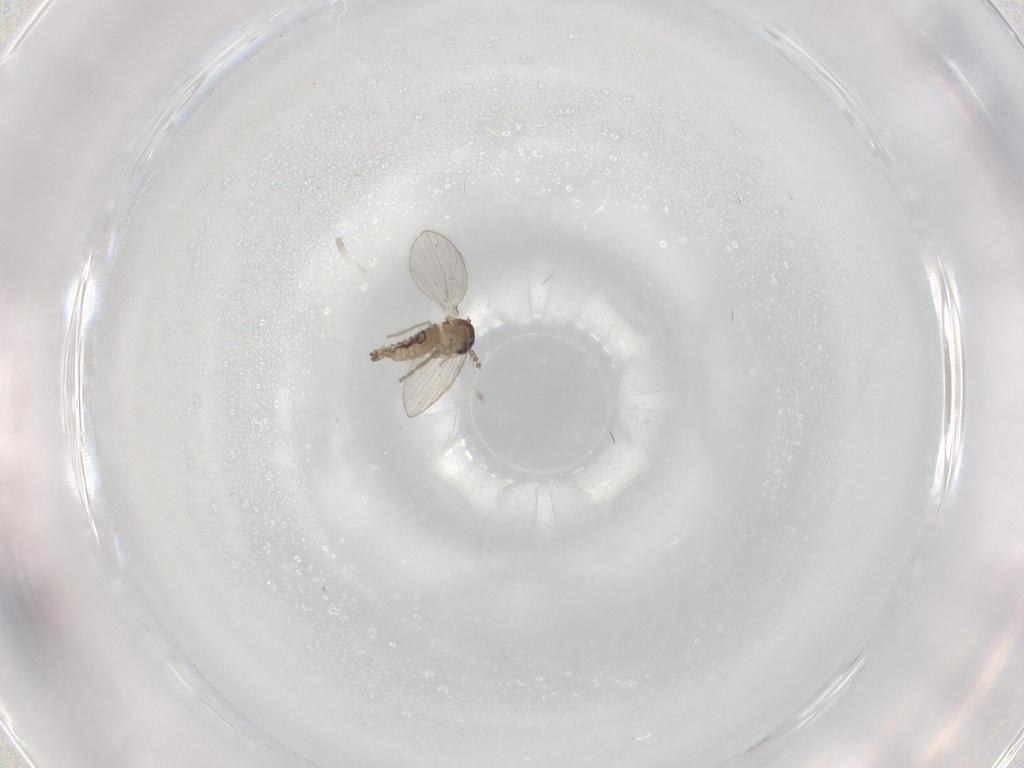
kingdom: Animalia
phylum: Arthropoda
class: Insecta
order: Diptera
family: Psychodidae
